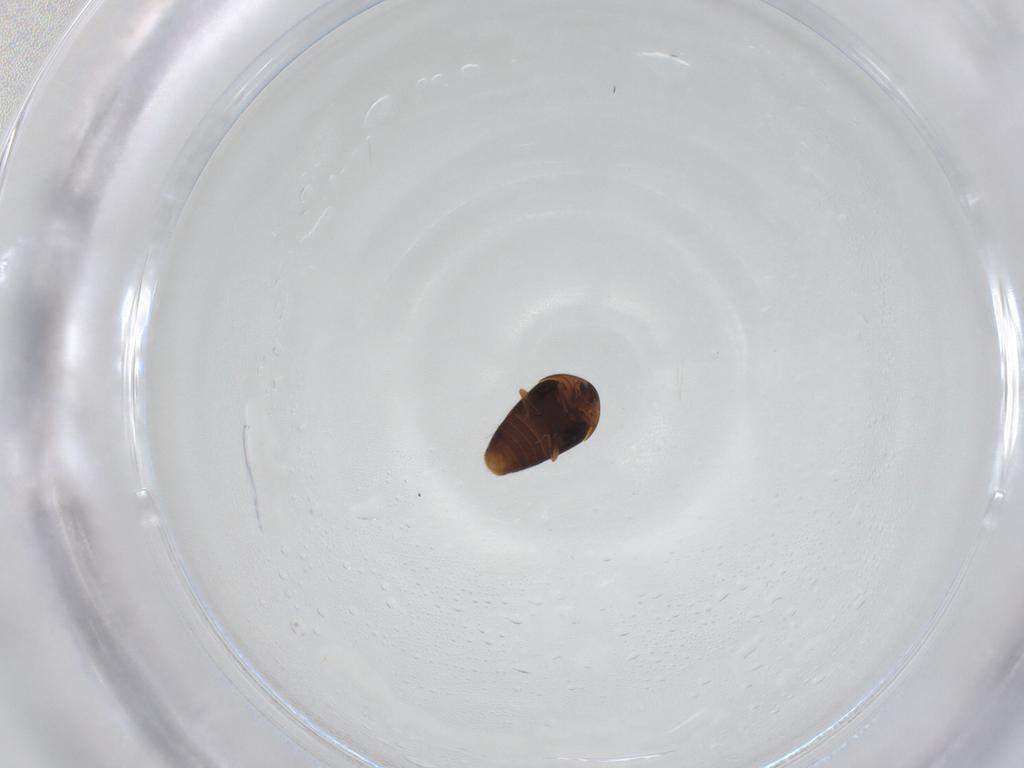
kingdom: Animalia
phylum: Arthropoda
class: Insecta
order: Coleoptera
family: Corylophidae
